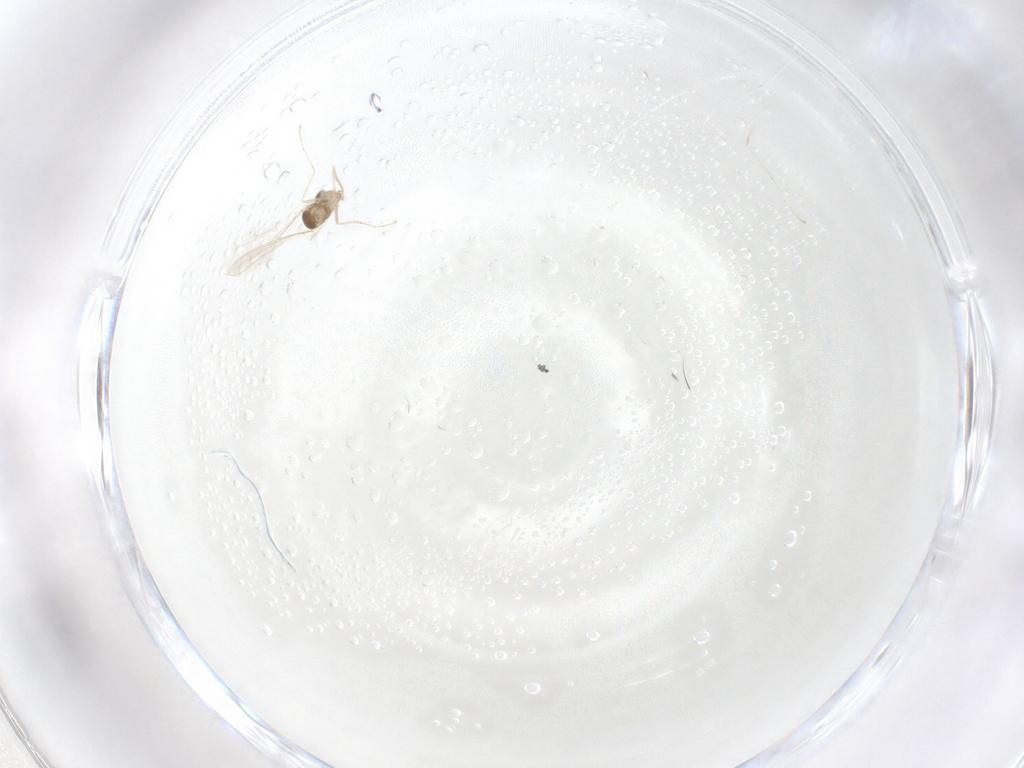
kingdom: Animalia
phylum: Arthropoda
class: Insecta
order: Diptera
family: Cecidomyiidae
